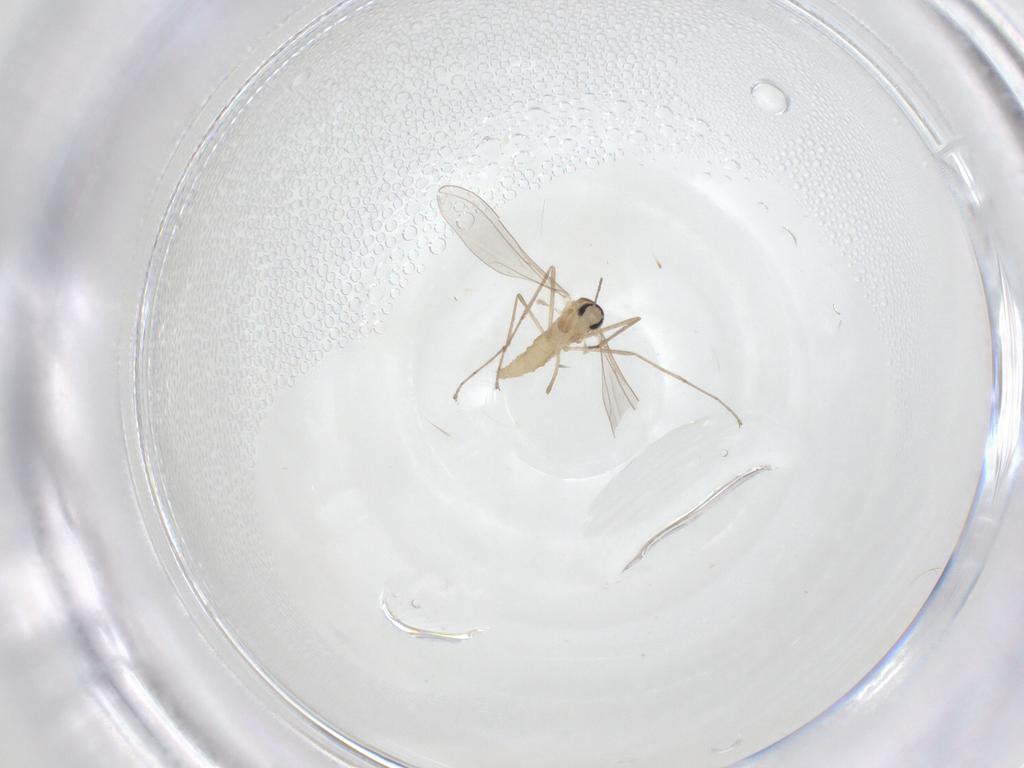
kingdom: Animalia
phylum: Arthropoda
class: Insecta
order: Diptera
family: Cecidomyiidae
